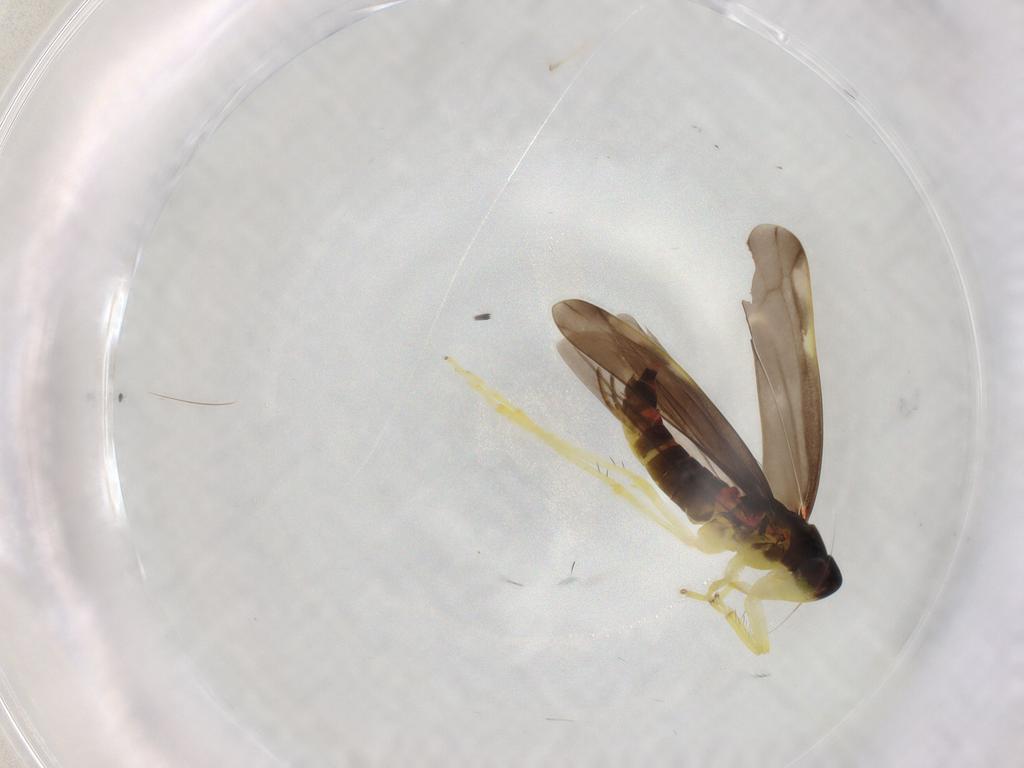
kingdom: Animalia
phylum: Arthropoda
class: Insecta
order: Hemiptera
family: Cicadellidae
